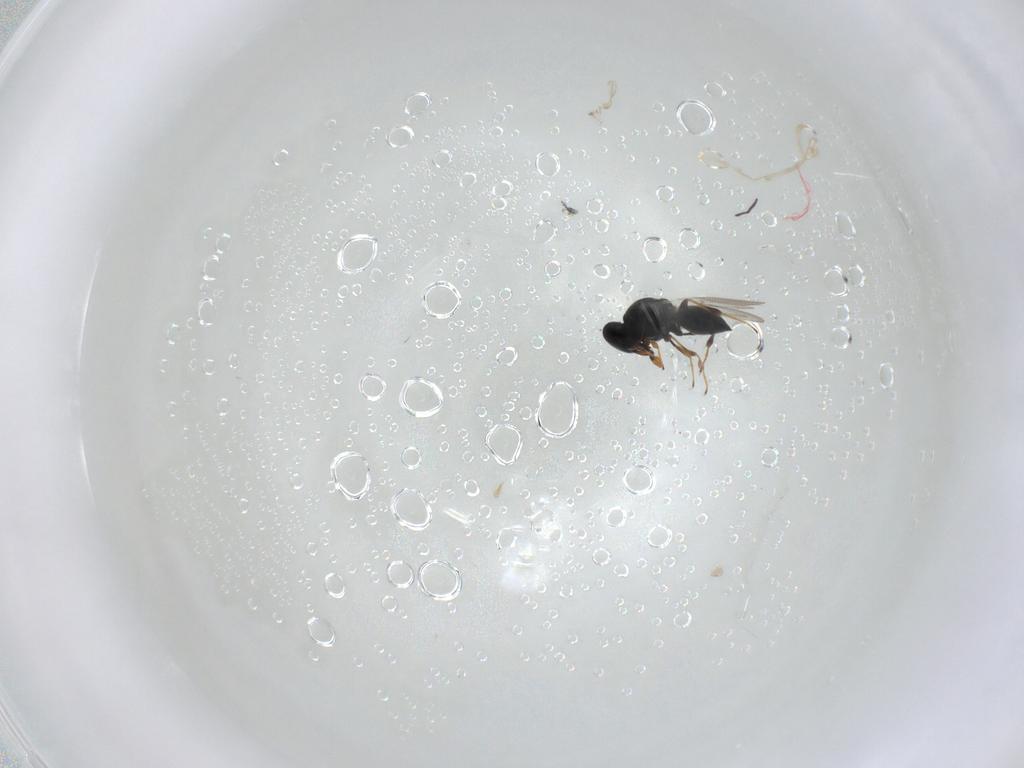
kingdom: Animalia
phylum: Arthropoda
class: Insecta
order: Hymenoptera
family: Platygastridae
